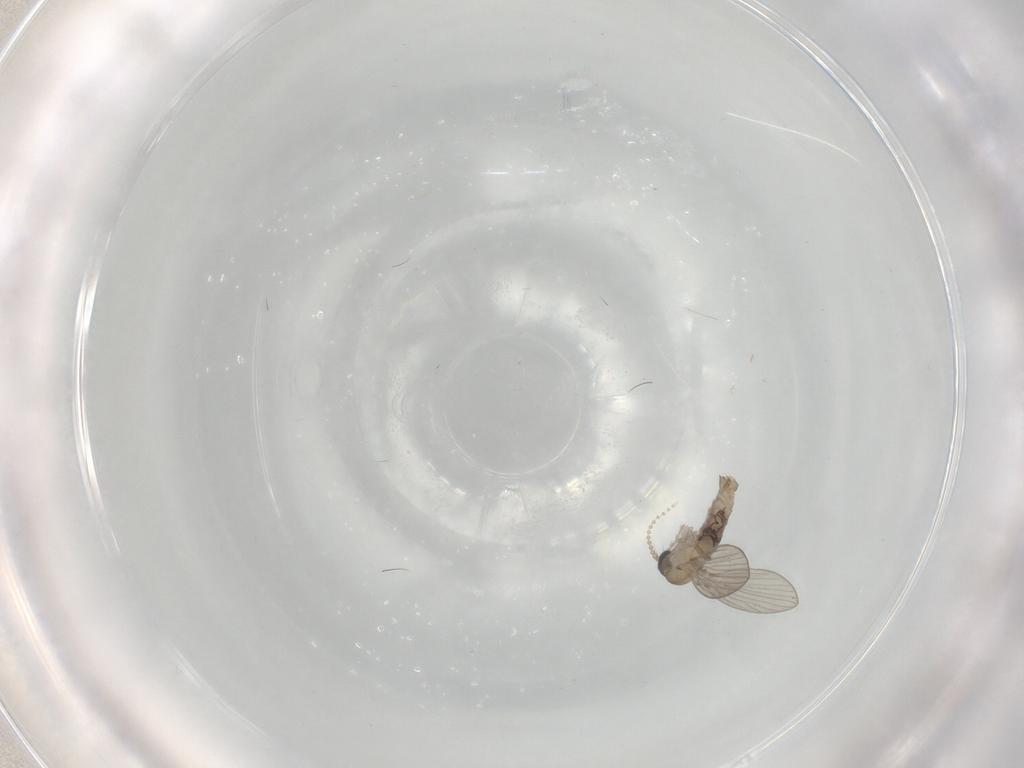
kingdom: Animalia
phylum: Arthropoda
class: Insecta
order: Diptera
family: Psychodidae
